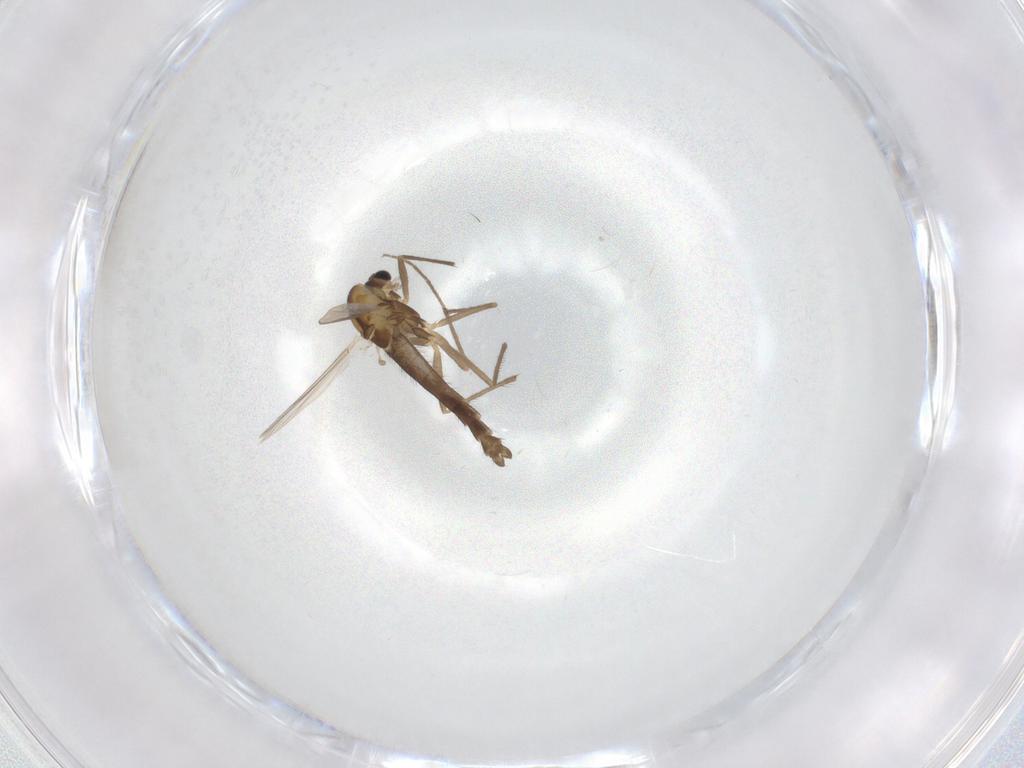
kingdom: Animalia
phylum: Arthropoda
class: Insecta
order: Diptera
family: Chironomidae
